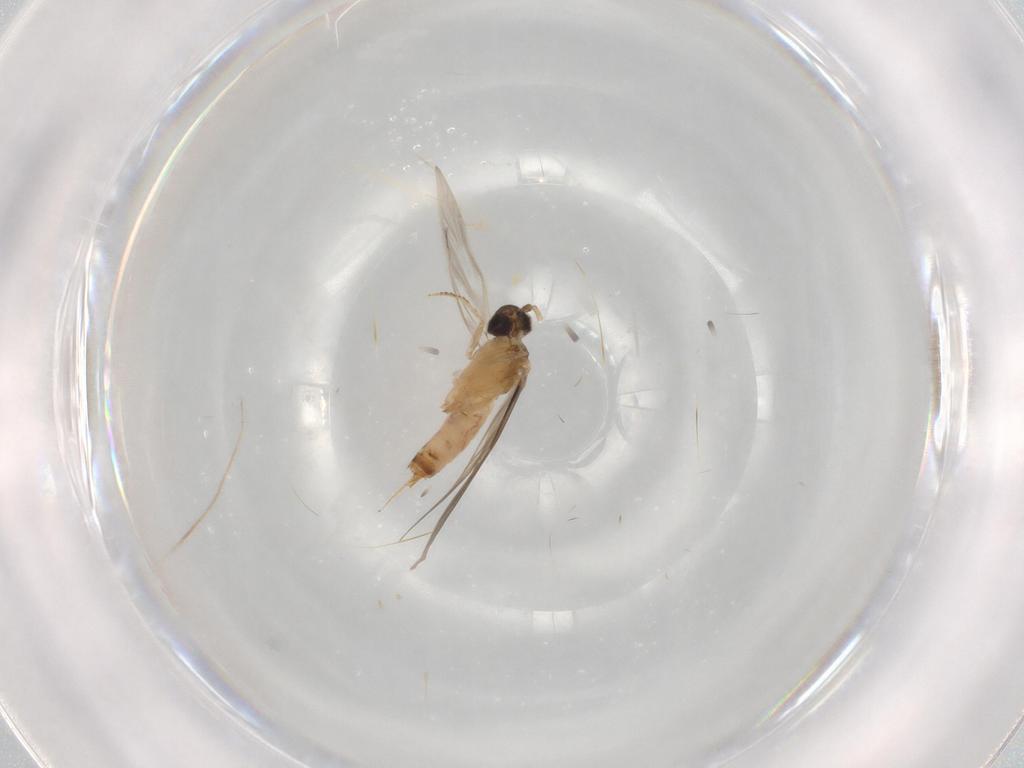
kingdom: Animalia
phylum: Arthropoda
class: Insecta
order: Trichoptera
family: Hydroptilidae
